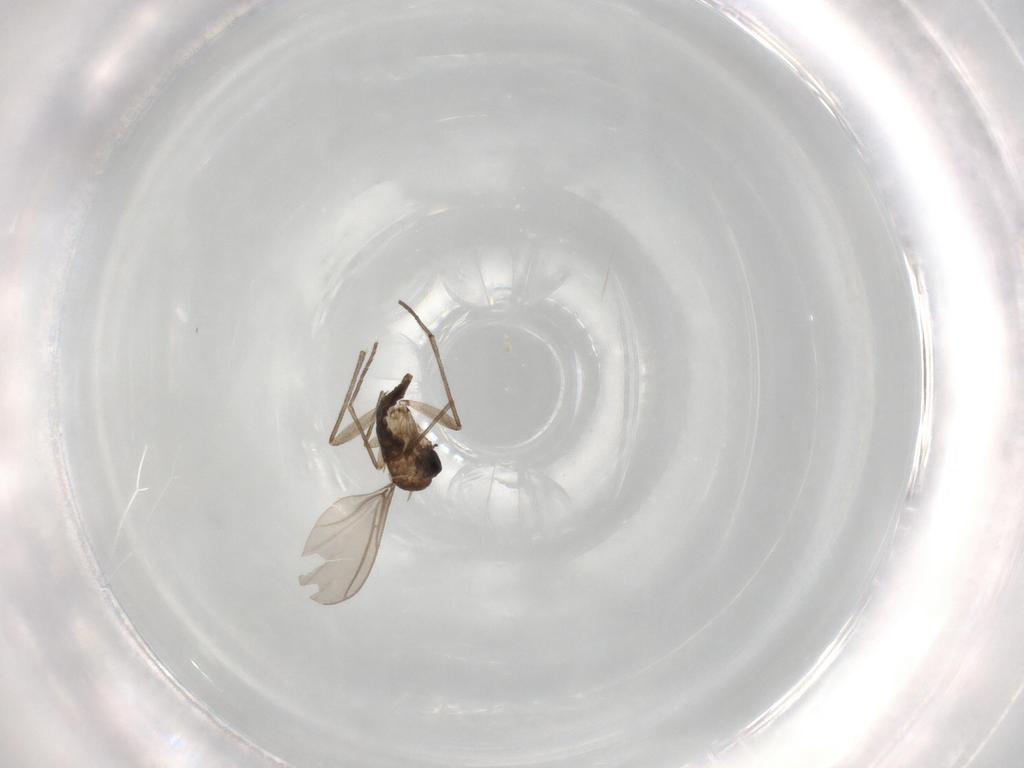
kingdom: Animalia
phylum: Arthropoda
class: Insecta
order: Diptera
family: Sciaridae
